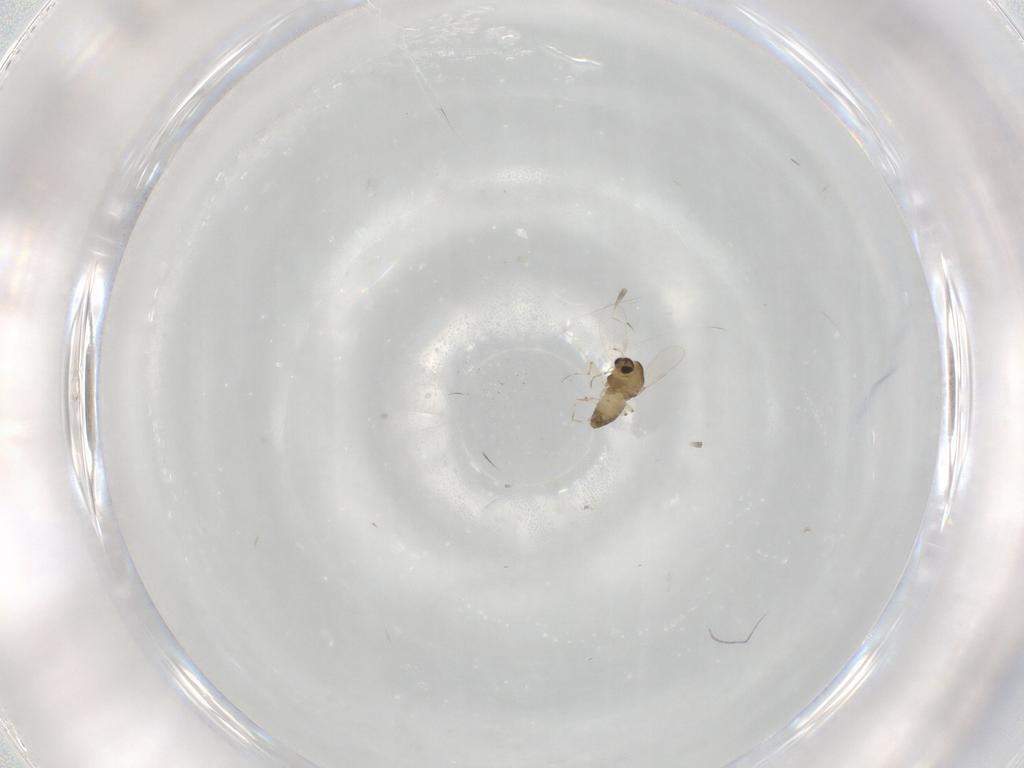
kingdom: Animalia
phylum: Arthropoda
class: Insecta
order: Diptera
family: Chironomidae
